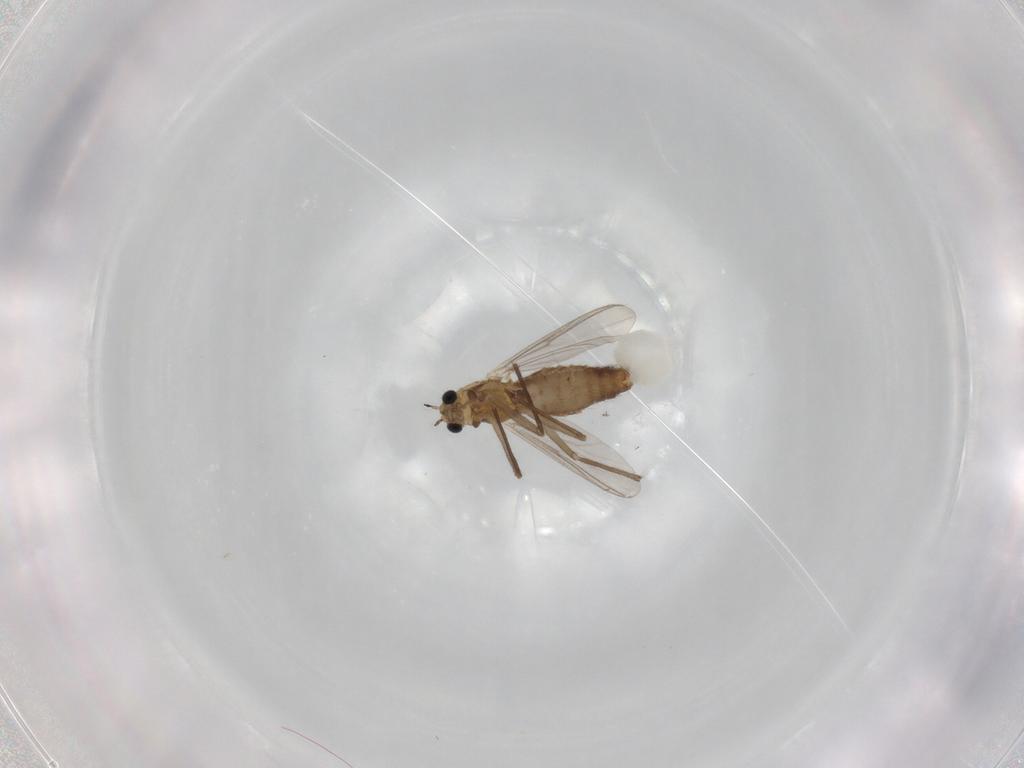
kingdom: Animalia
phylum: Arthropoda
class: Insecta
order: Diptera
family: Chironomidae
